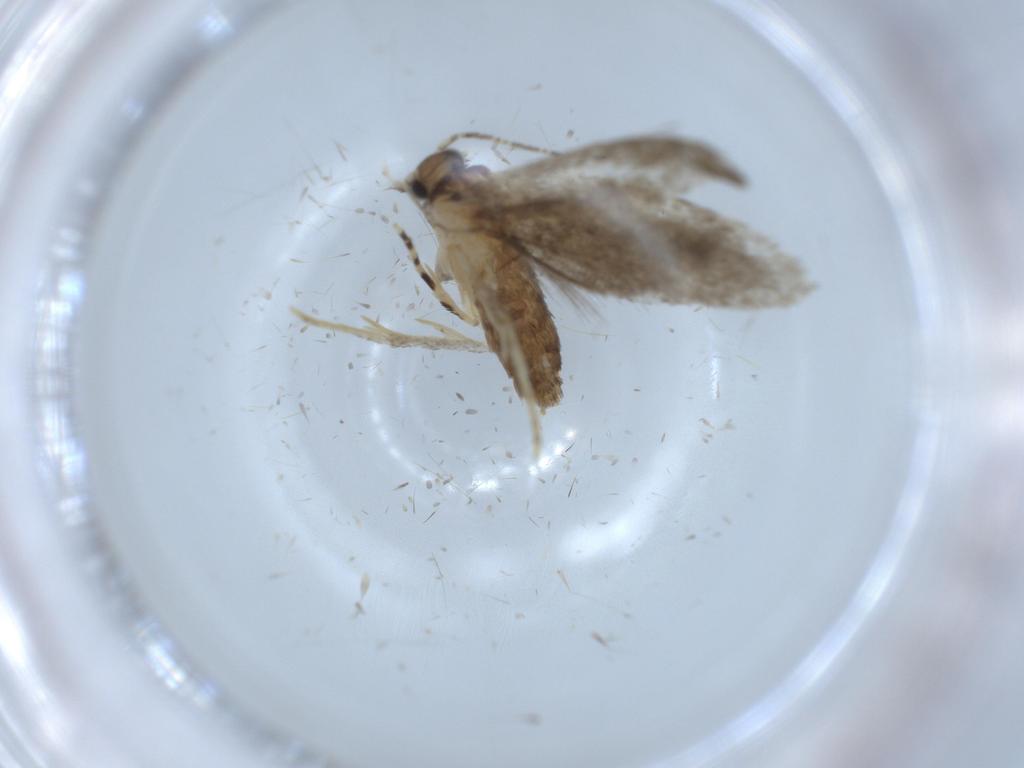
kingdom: Animalia
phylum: Arthropoda
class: Insecta
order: Lepidoptera
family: Tineidae
